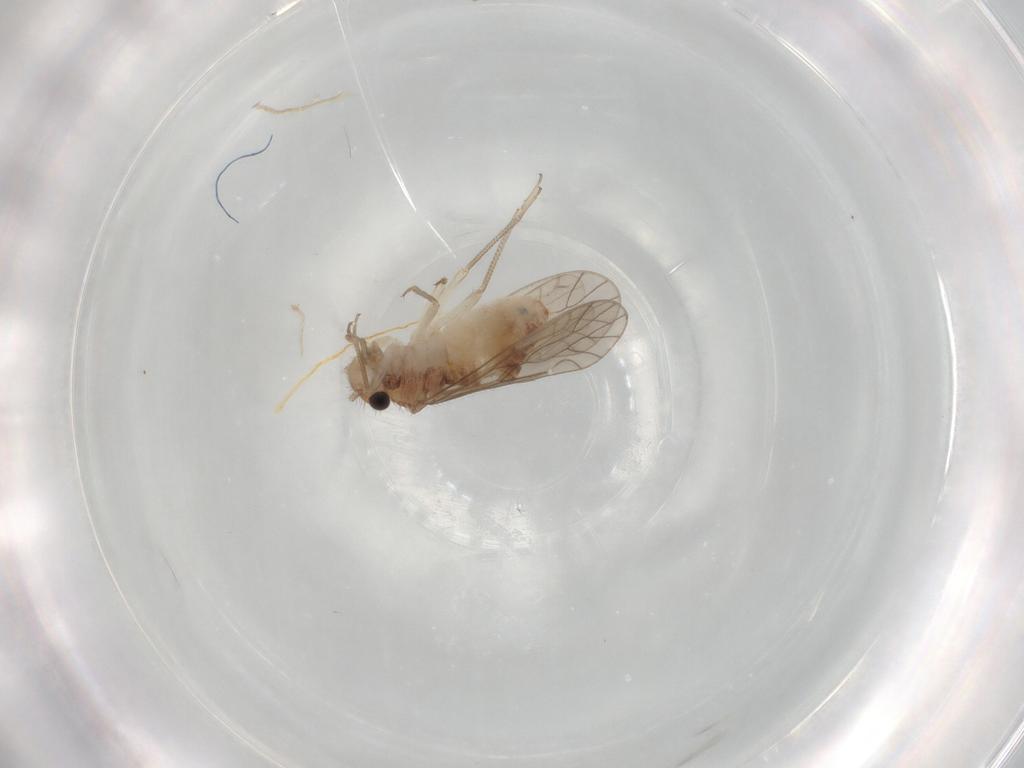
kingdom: Animalia
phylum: Arthropoda
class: Insecta
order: Psocodea
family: Caeciliusidae
